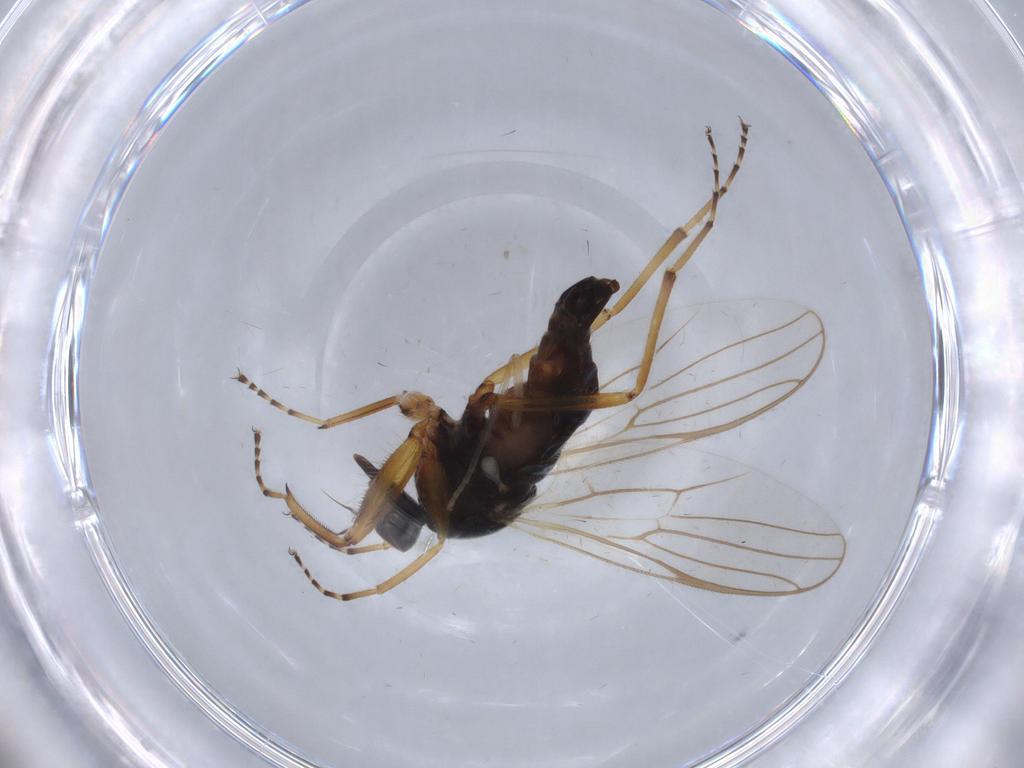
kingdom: Animalia
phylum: Arthropoda
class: Insecta
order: Diptera
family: Hybotidae
